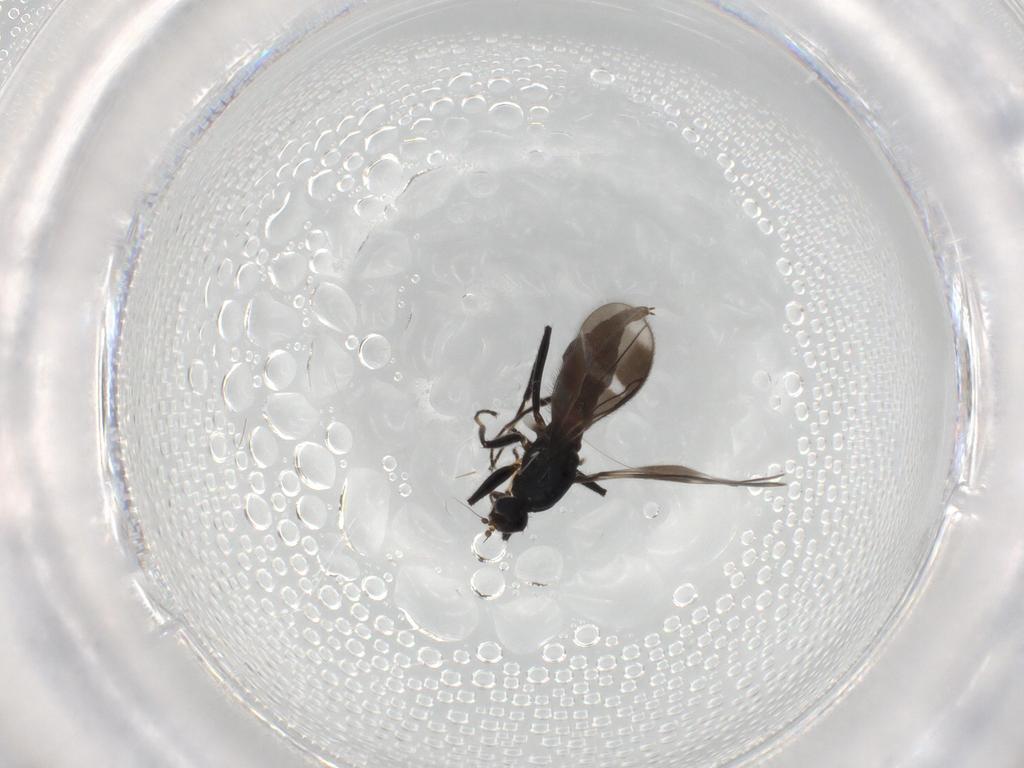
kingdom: Animalia
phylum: Arthropoda
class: Insecta
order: Diptera
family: Hybotidae
